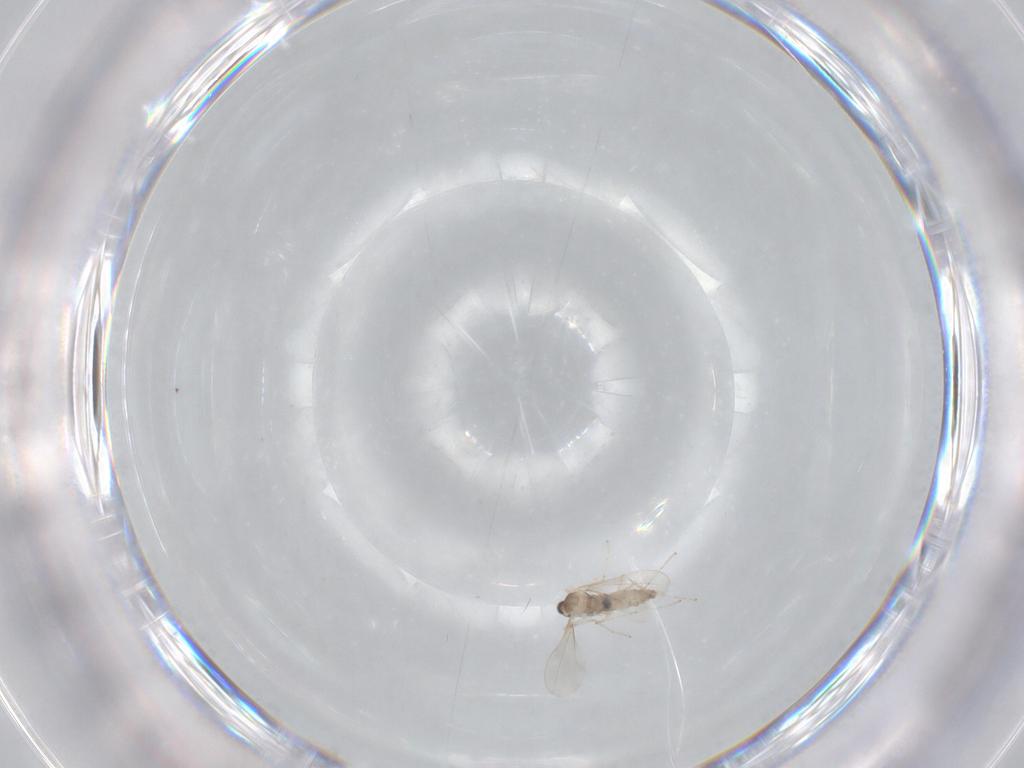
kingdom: Animalia
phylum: Arthropoda
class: Insecta
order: Diptera
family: Cecidomyiidae
